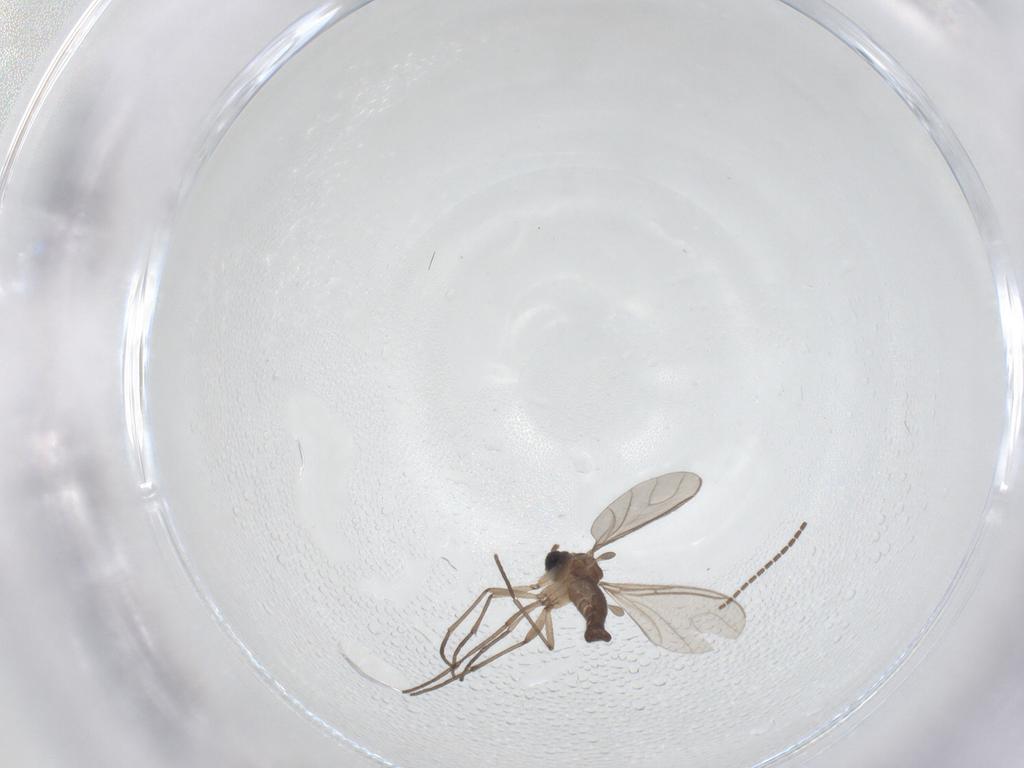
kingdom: Animalia
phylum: Arthropoda
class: Insecta
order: Diptera
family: Sciaridae
